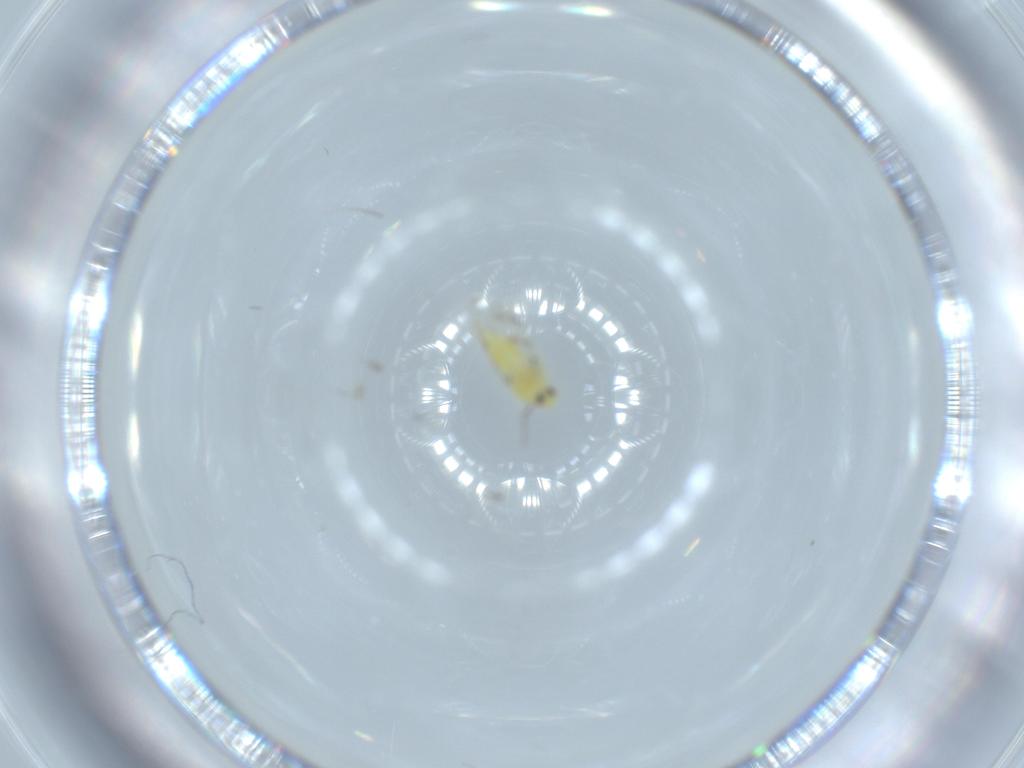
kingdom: Animalia
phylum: Arthropoda
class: Insecta
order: Hemiptera
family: Aleyrodidae
